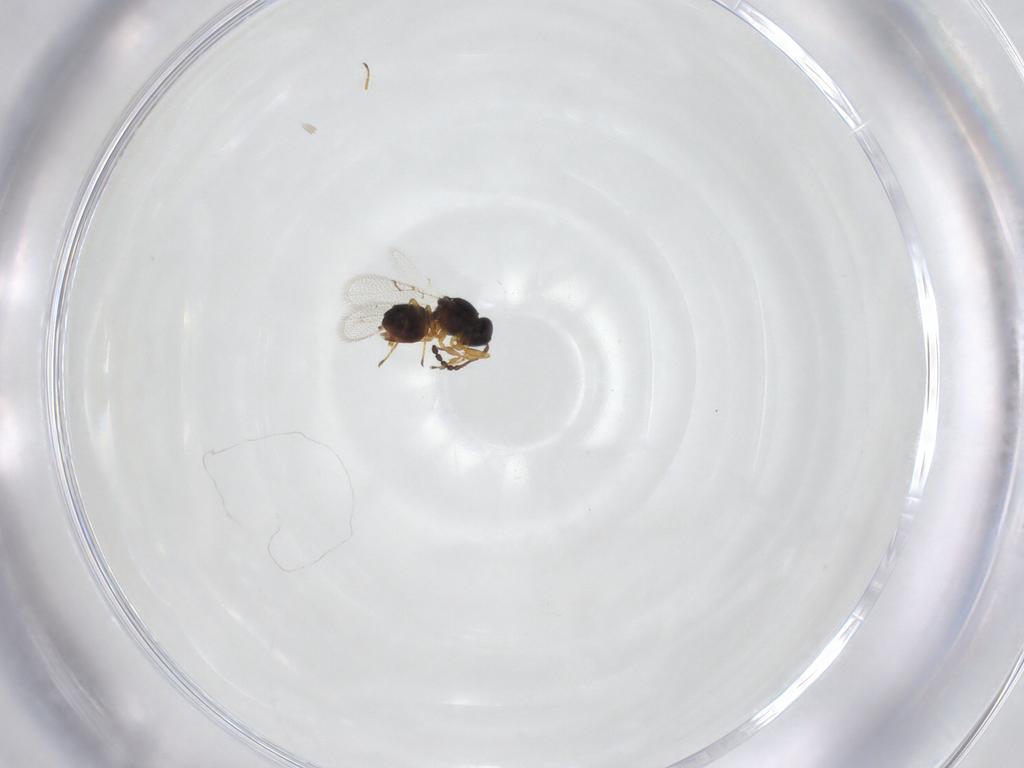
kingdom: Animalia
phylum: Arthropoda
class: Insecta
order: Hymenoptera
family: Figitidae
